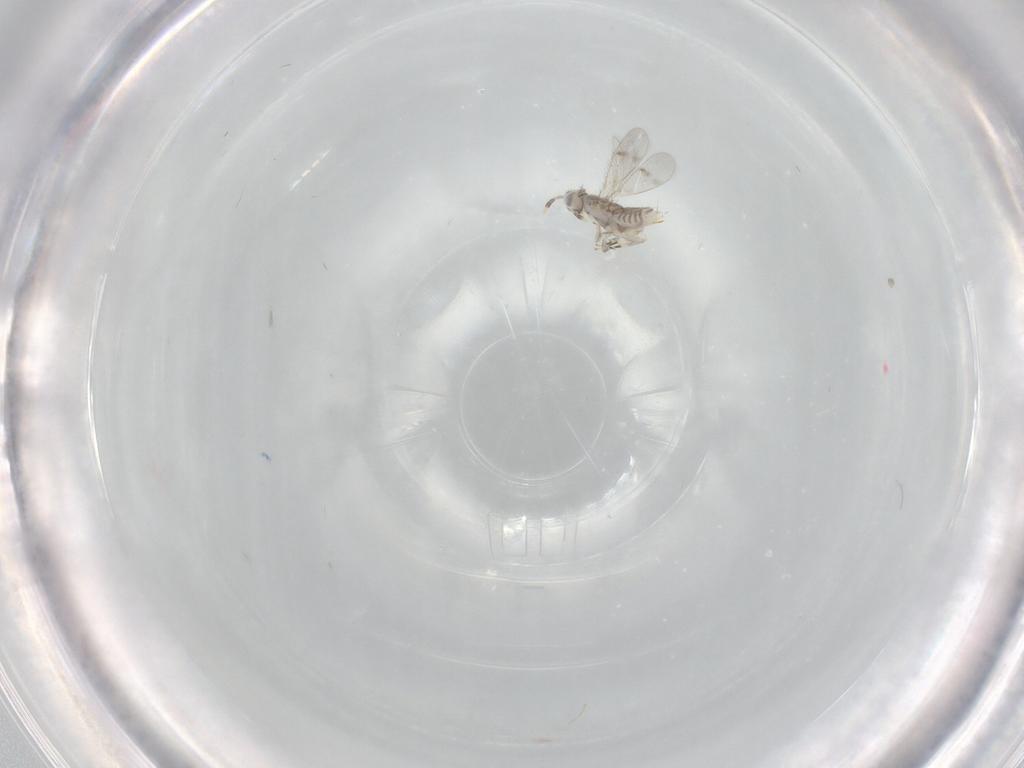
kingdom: Animalia
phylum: Arthropoda
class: Insecta
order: Hymenoptera
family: Aphelinidae
